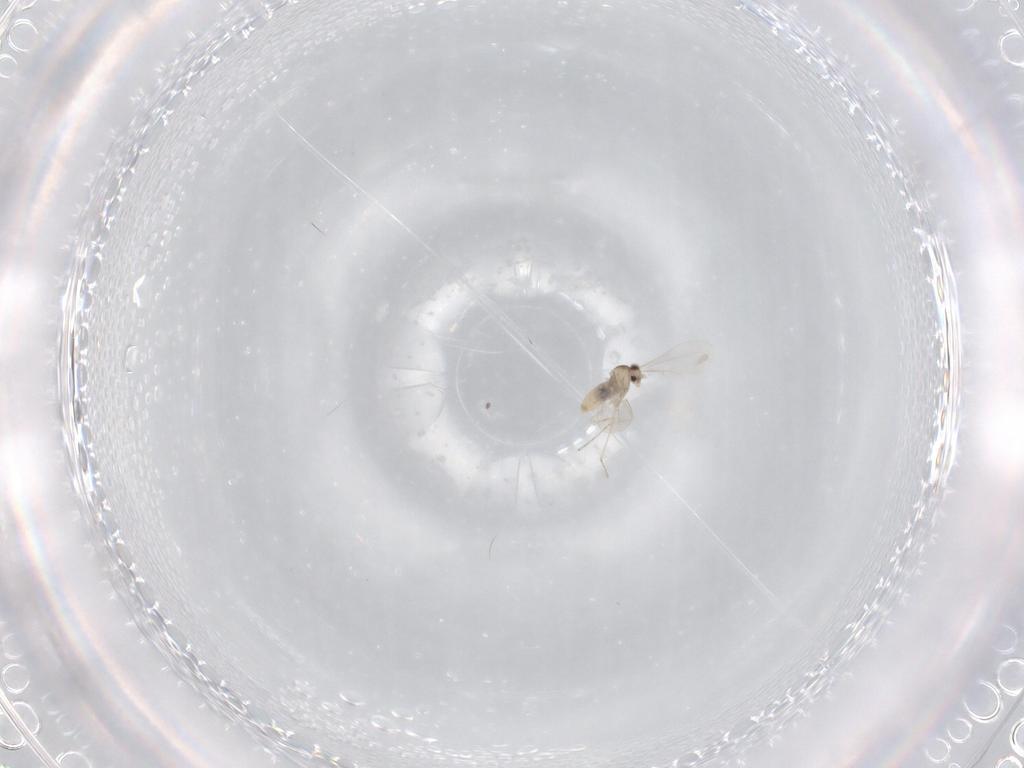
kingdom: Animalia
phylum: Arthropoda
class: Insecta
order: Diptera
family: Cecidomyiidae
